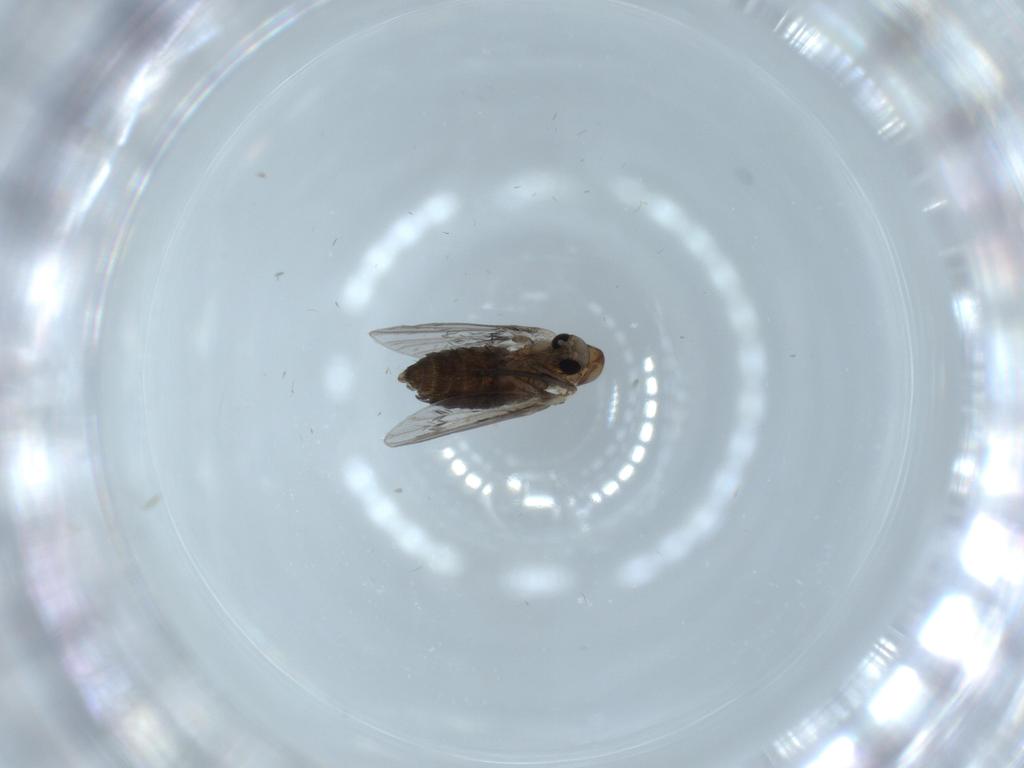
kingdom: Animalia
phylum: Arthropoda
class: Insecta
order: Diptera
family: Psychodidae
